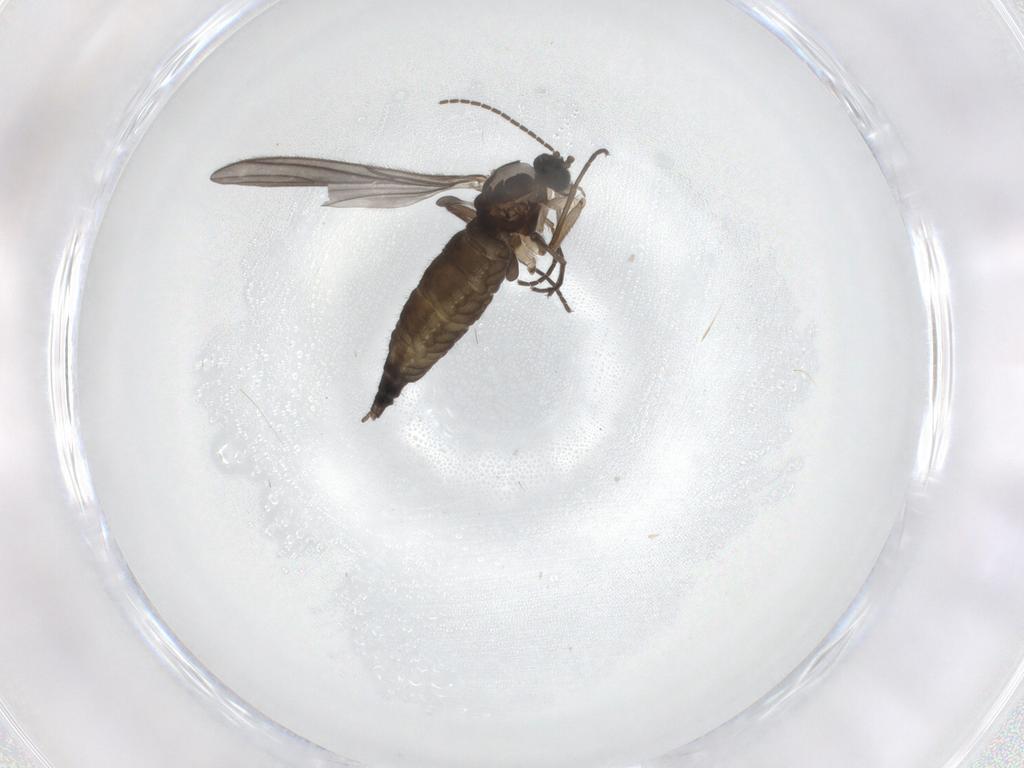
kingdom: Animalia
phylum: Arthropoda
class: Insecta
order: Diptera
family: Sciaridae
